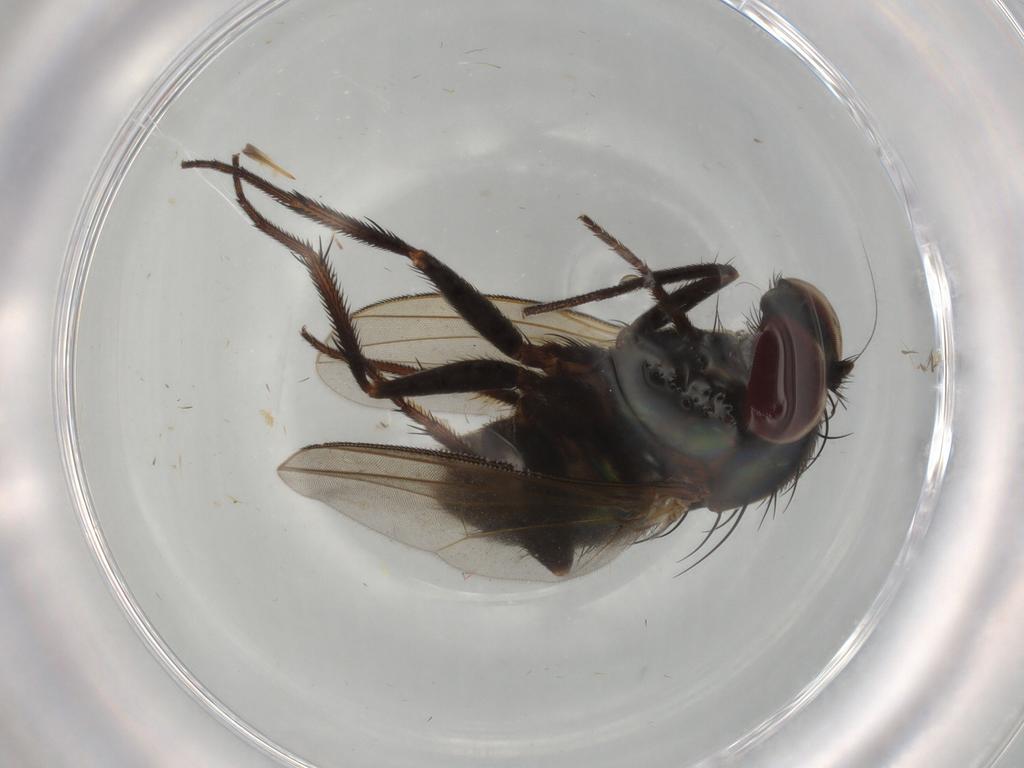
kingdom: Animalia
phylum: Arthropoda
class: Insecta
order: Diptera
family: Dolichopodidae
